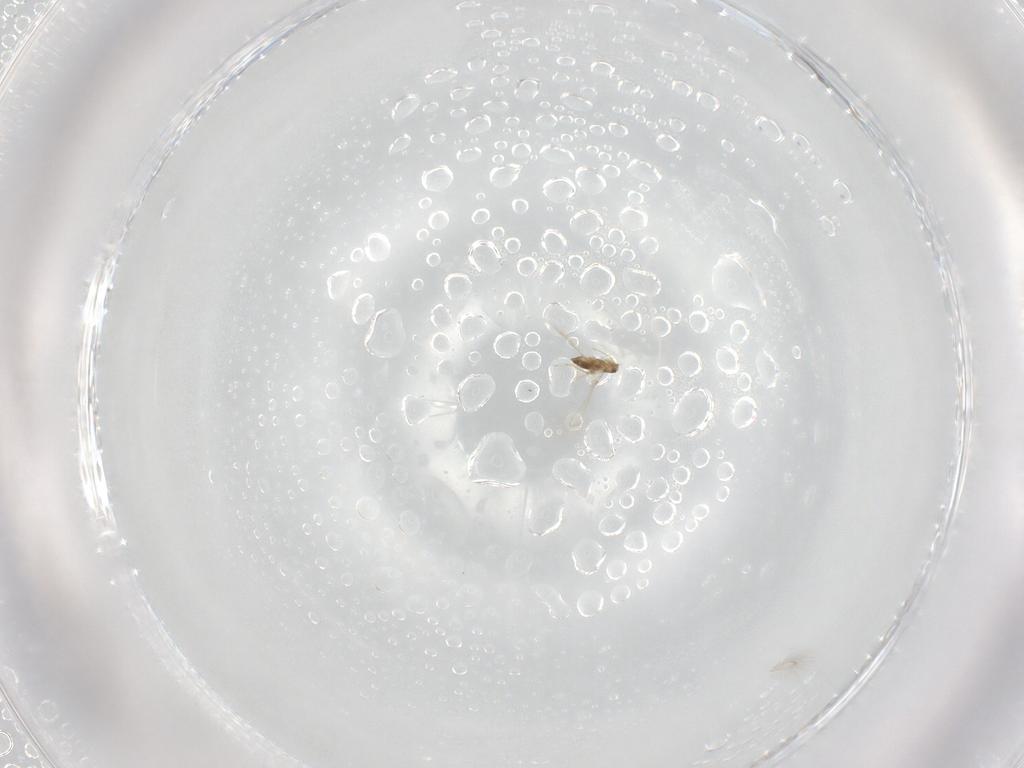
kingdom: Animalia
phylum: Arthropoda
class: Insecta
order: Hymenoptera
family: Mymaridae
